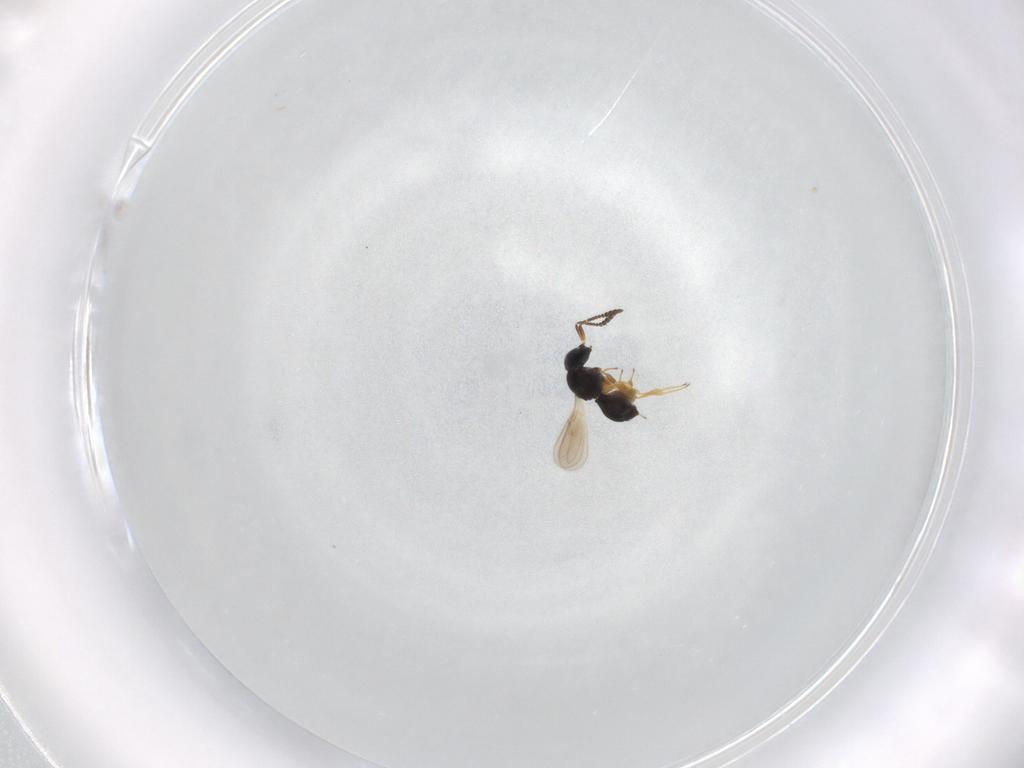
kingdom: Animalia
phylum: Arthropoda
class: Insecta
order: Hymenoptera
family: Scelionidae
